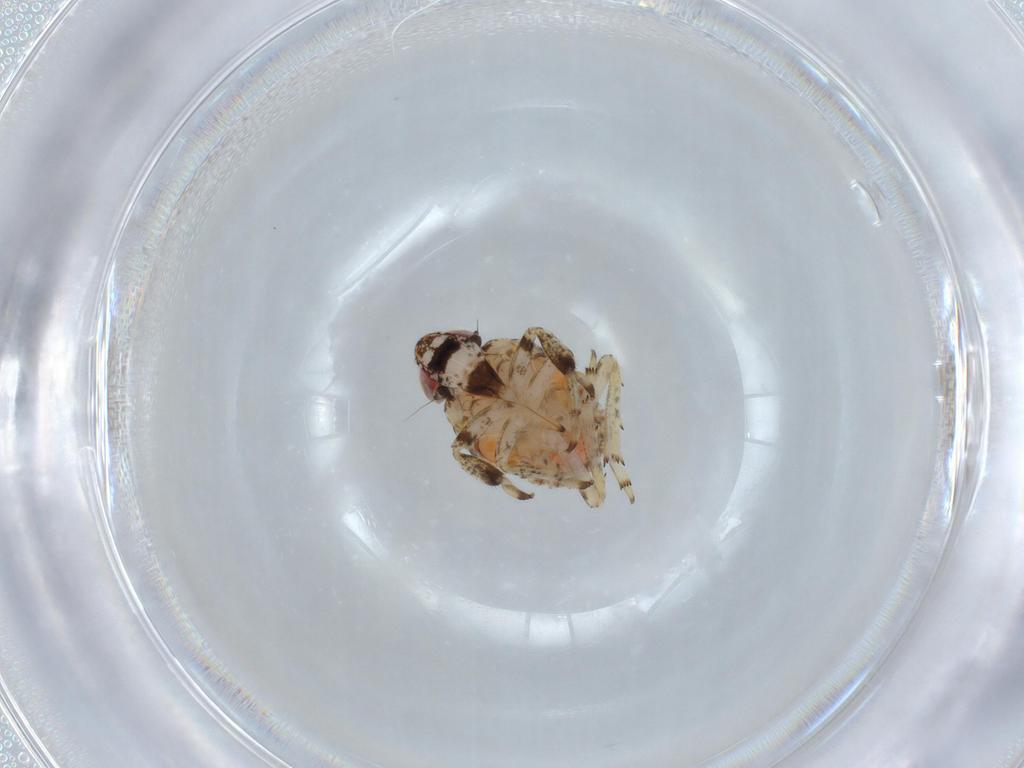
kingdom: Animalia
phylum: Arthropoda
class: Insecta
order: Hemiptera
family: Issidae
